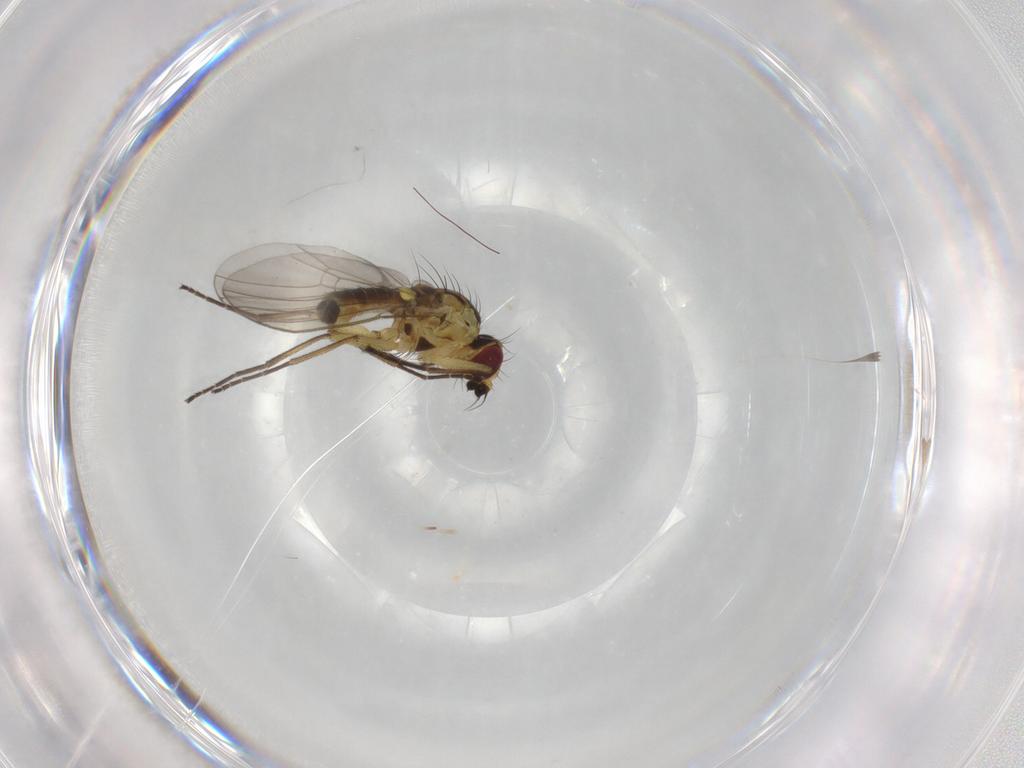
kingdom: Animalia
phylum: Arthropoda
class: Insecta
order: Diptera
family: Agromyzidae
